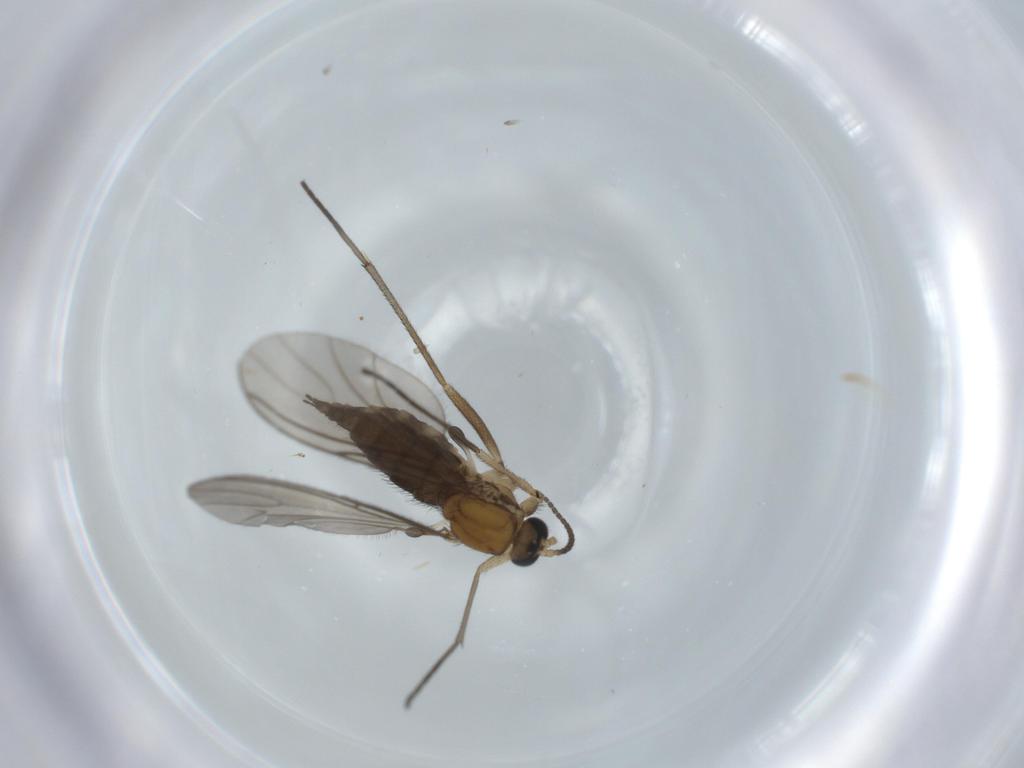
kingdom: Animalia
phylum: Arthropoda
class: Insecta
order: Diptera
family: Sciaridae
